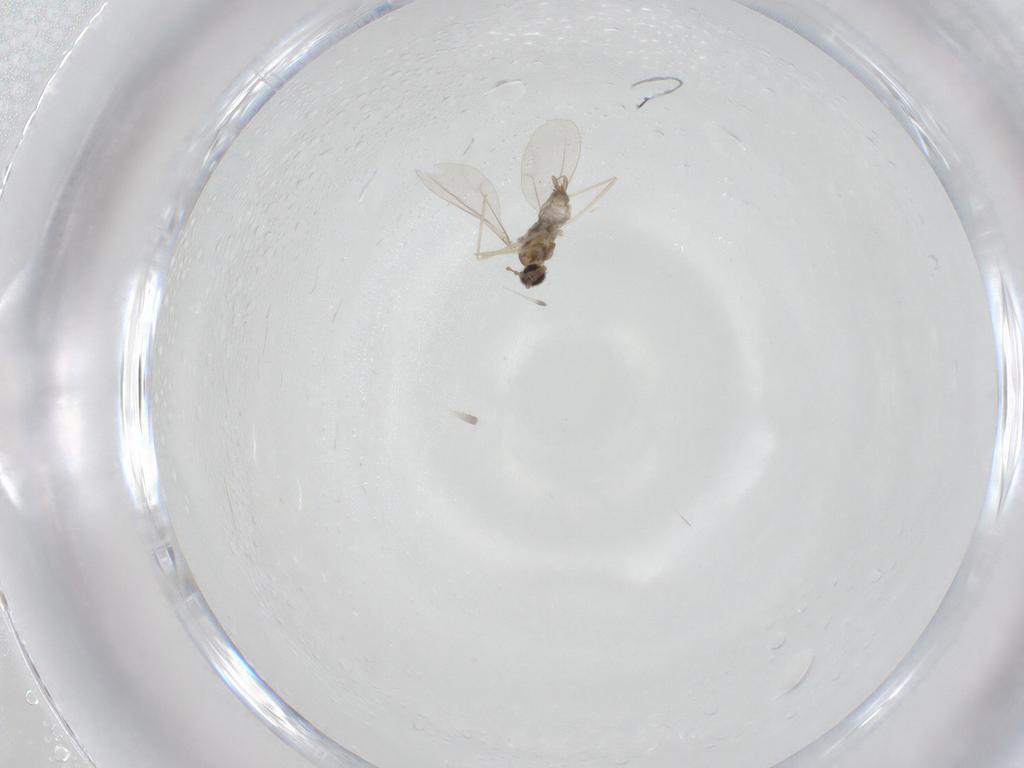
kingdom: Animalia
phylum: Arthropoda
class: Insecta
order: Diptera
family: Cecidomyiidae
